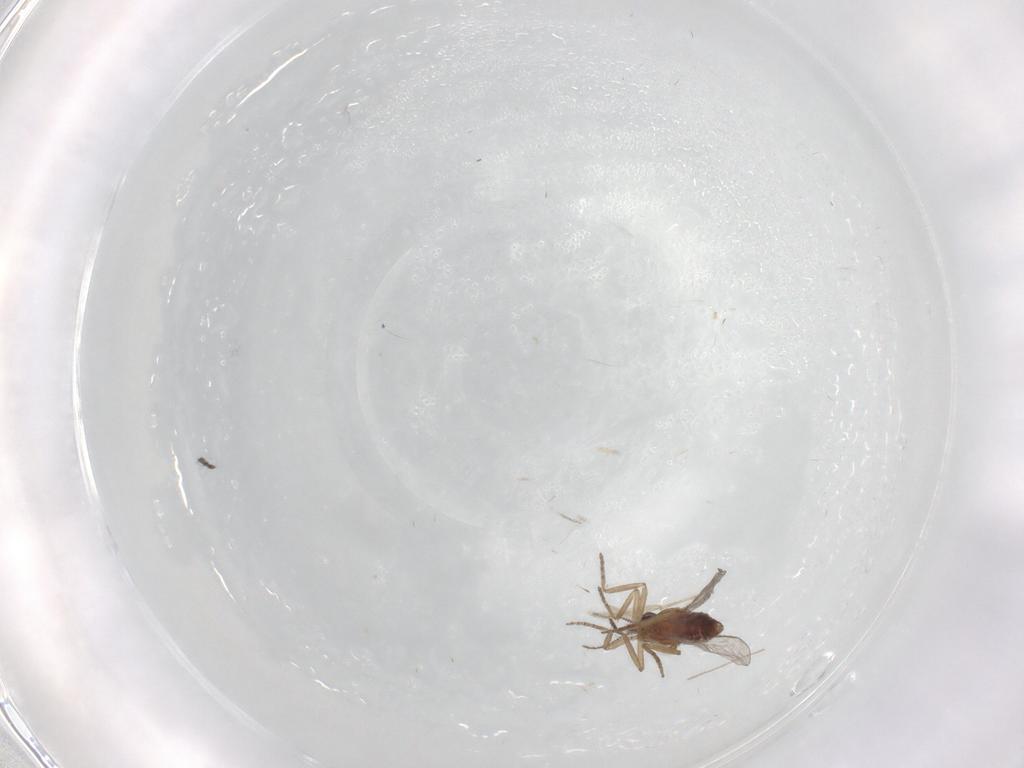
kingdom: Animalia
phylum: Arthropoda
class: Insecta
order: Diptera
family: Sciaridae
